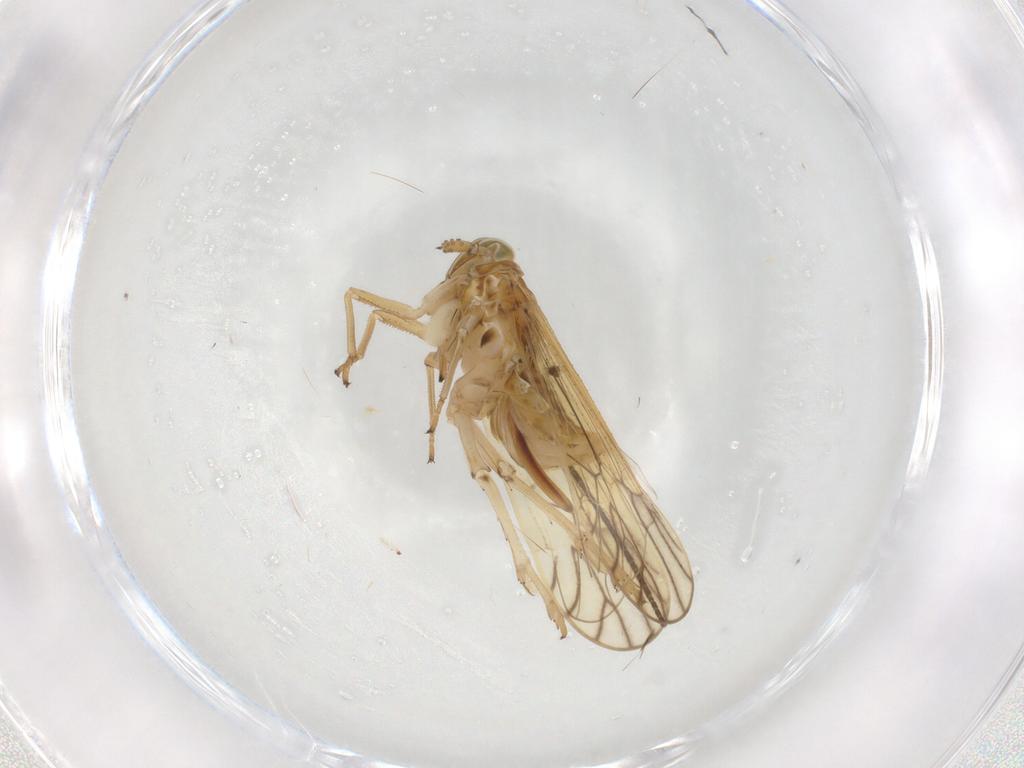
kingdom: Animalia
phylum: Arthropoda
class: Insecta
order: Hemiptera
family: Delphacidae
